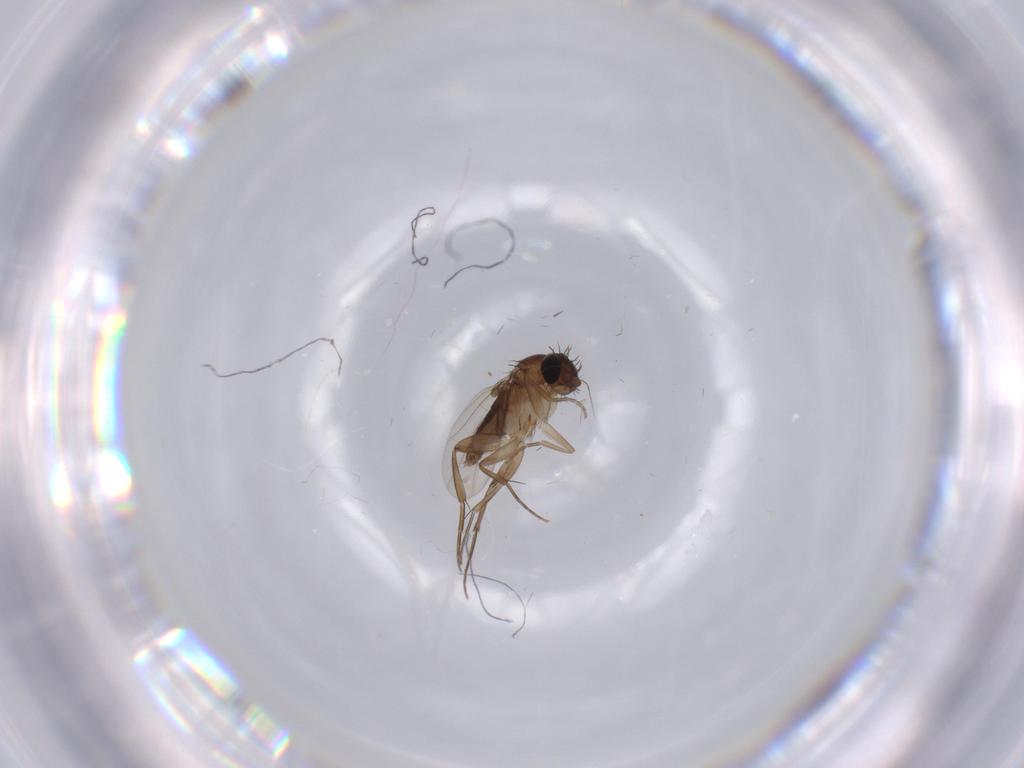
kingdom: Animalia
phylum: Arthropoda
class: Insecta
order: Diptera
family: Phoridae
